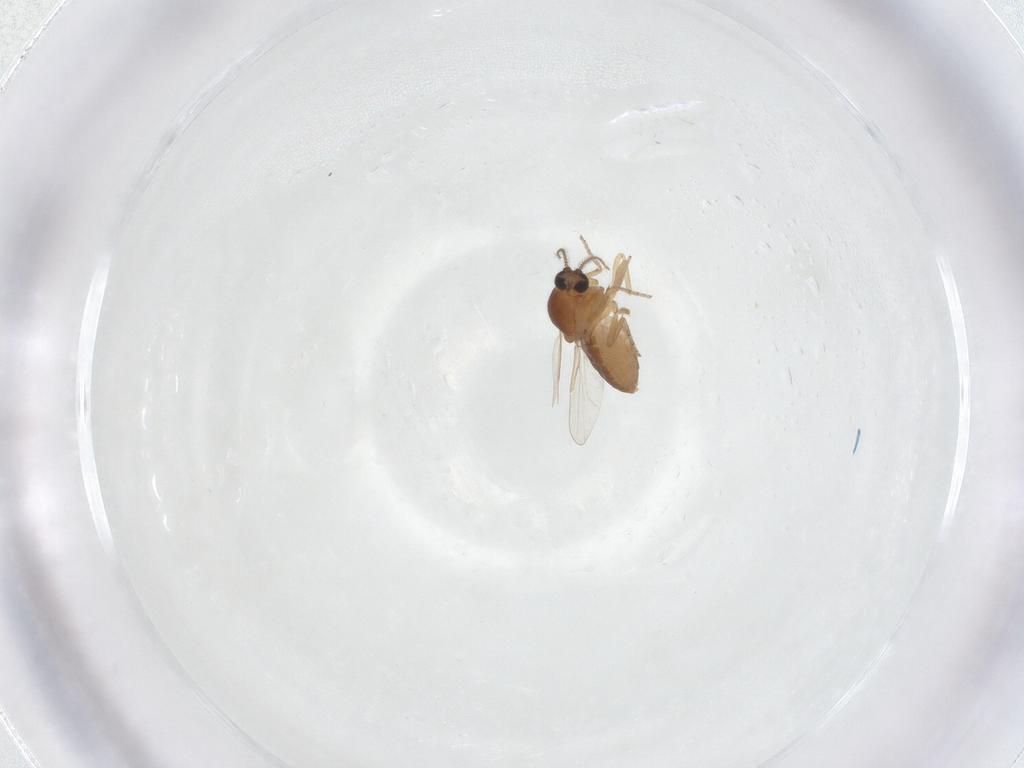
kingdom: Animalia
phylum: Arthropoda
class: Insecta
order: Diptera
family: Ceratopogonidae
